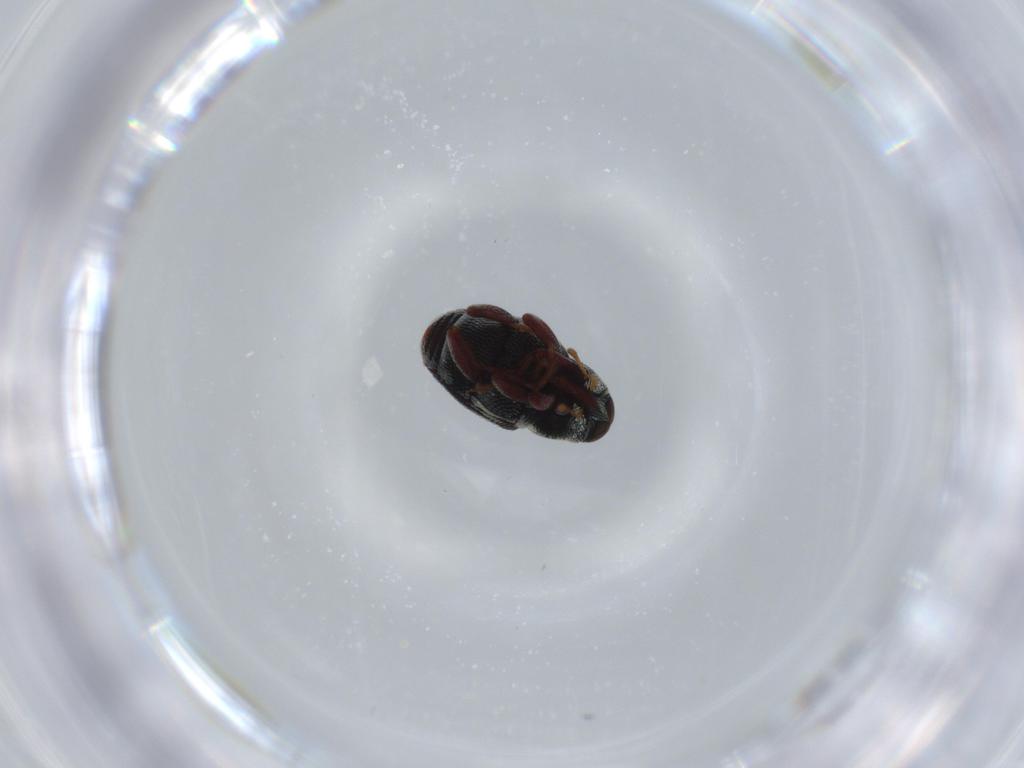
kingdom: Animalia
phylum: Arthropoda
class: Insecta
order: Coleoptera
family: Curculionidae
